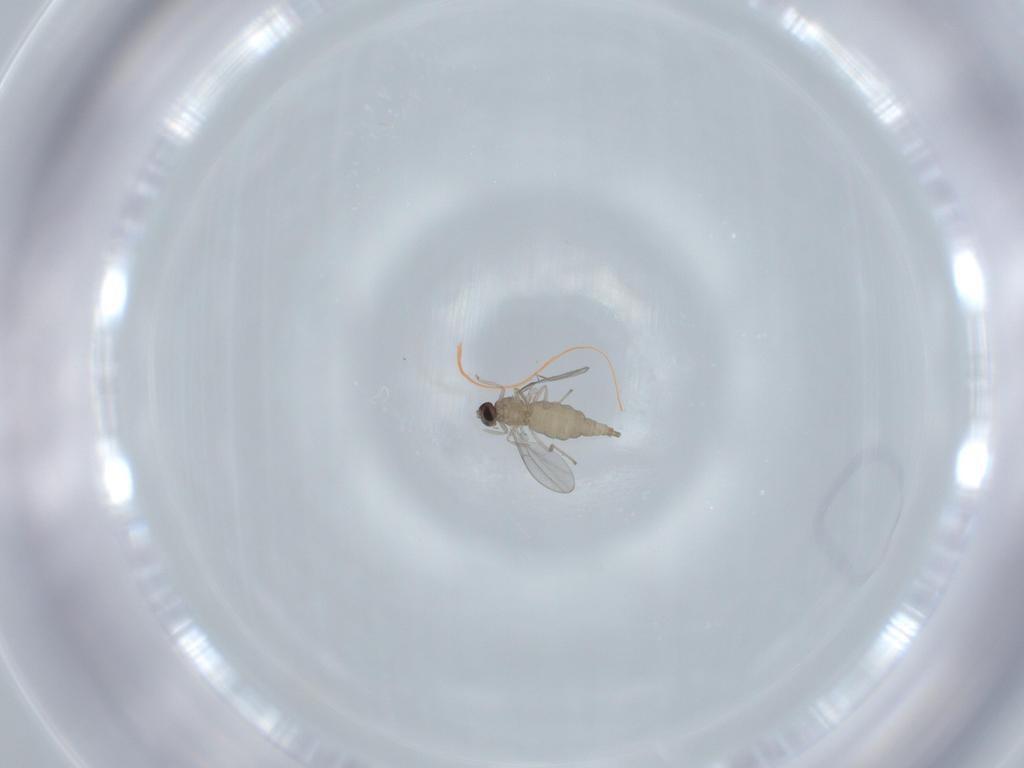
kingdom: Animalia
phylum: Arthropoda
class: Insecta
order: Diptera
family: Cecidomyiidae
